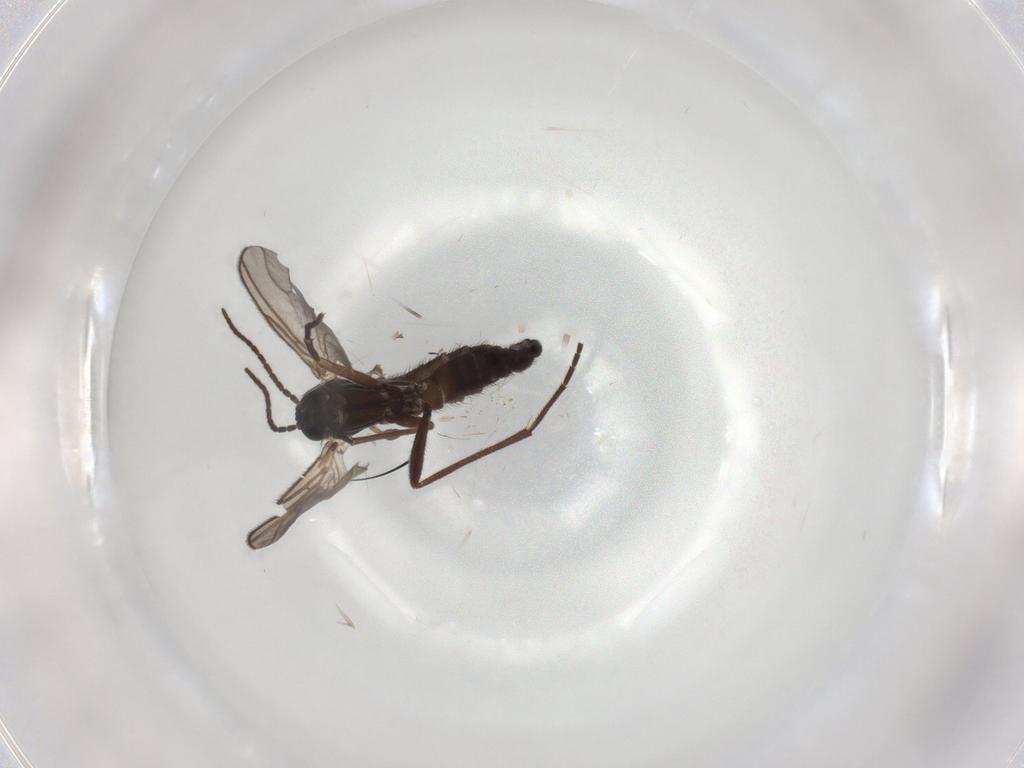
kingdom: Animalia
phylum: Arthropoda
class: Insecta
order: Diptera
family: Sciaridae
